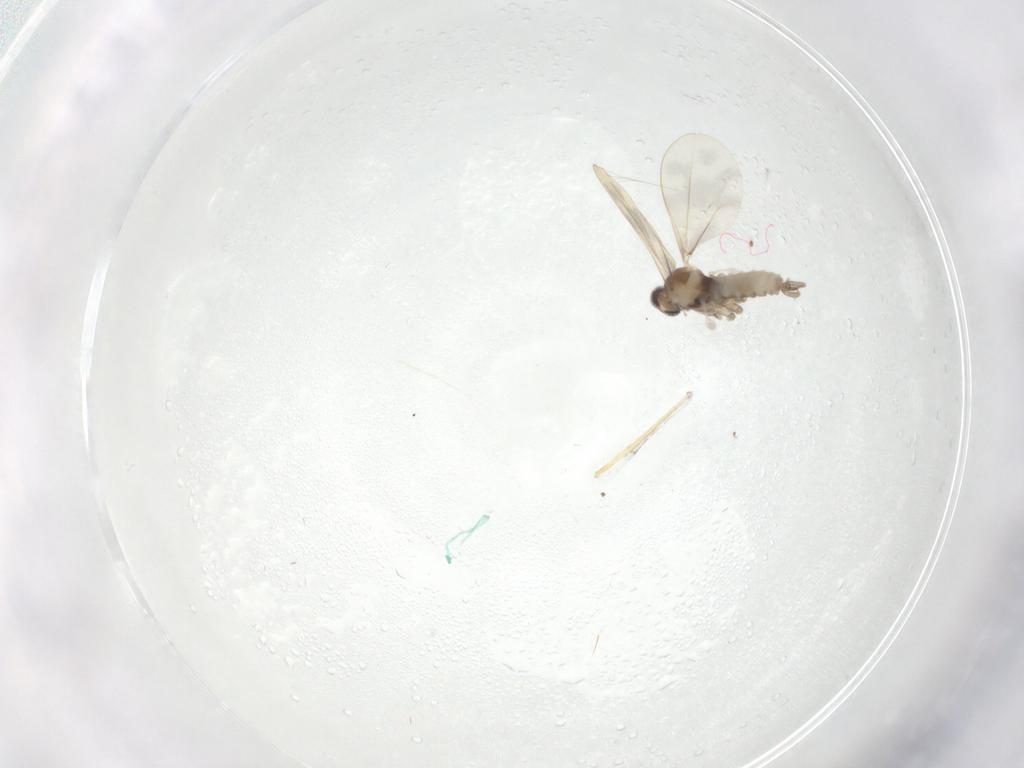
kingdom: Animalia
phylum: Arthropoda
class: Insecta
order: Diptera
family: Cecidomyiidae
